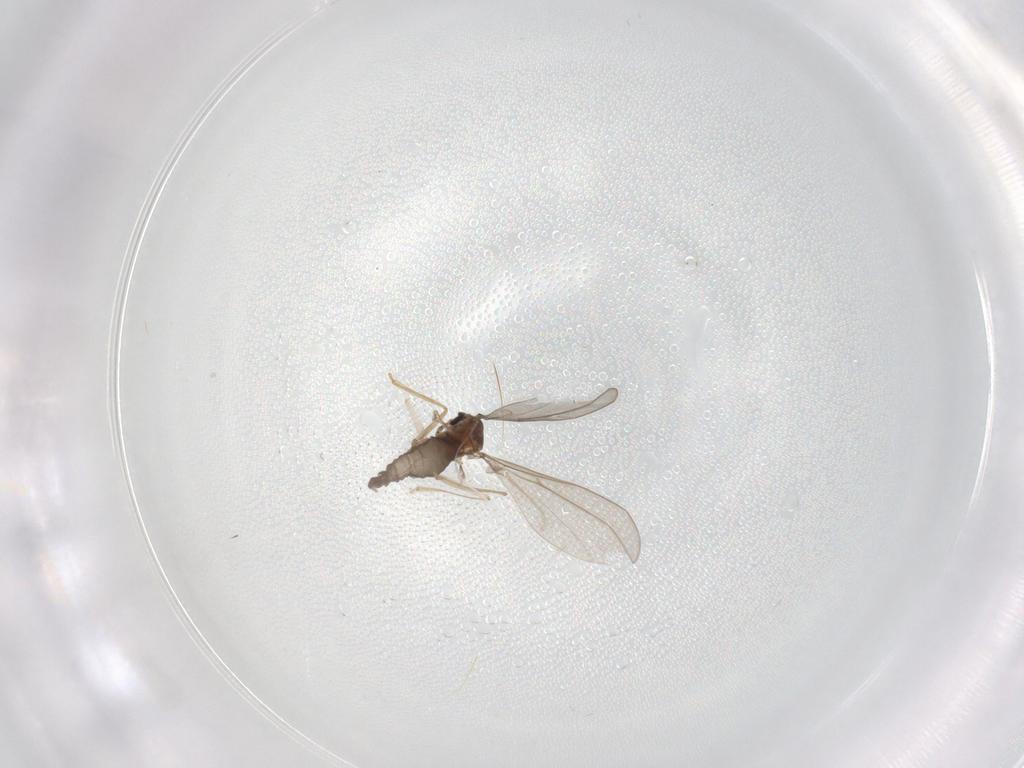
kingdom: Animalia
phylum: Arthropoda
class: Insecta
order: Diptera
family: Cecidomyiidae
